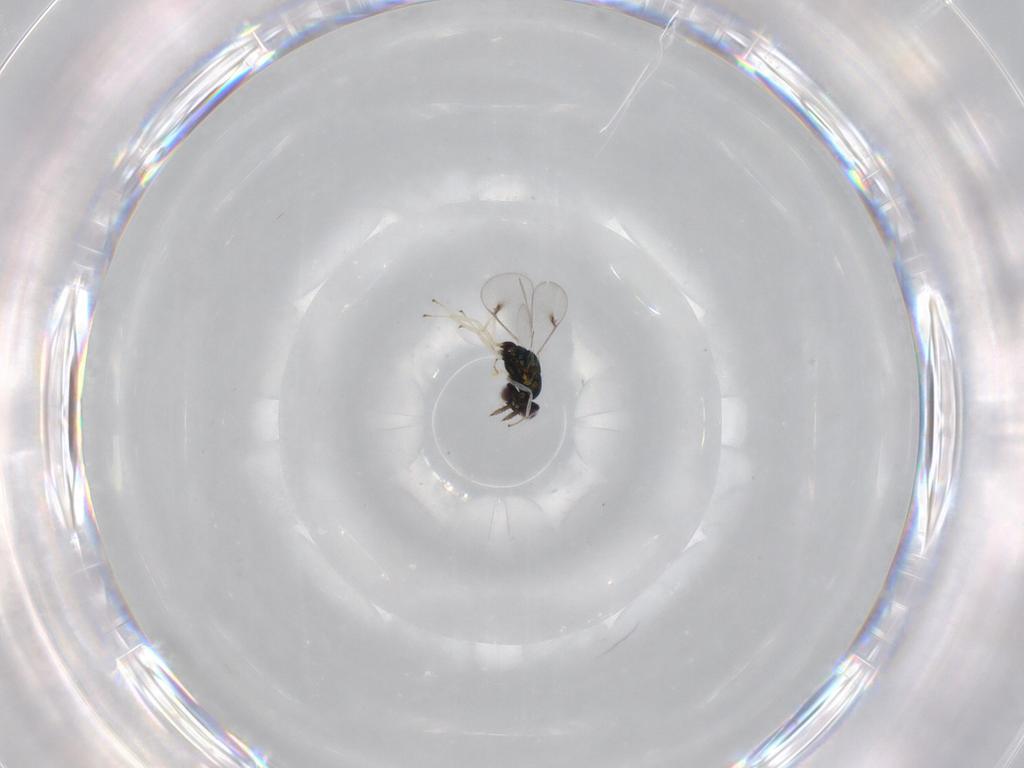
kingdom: Animalia
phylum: Arthropoda
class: Insecta
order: Hymenoptera
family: Eulophidae
